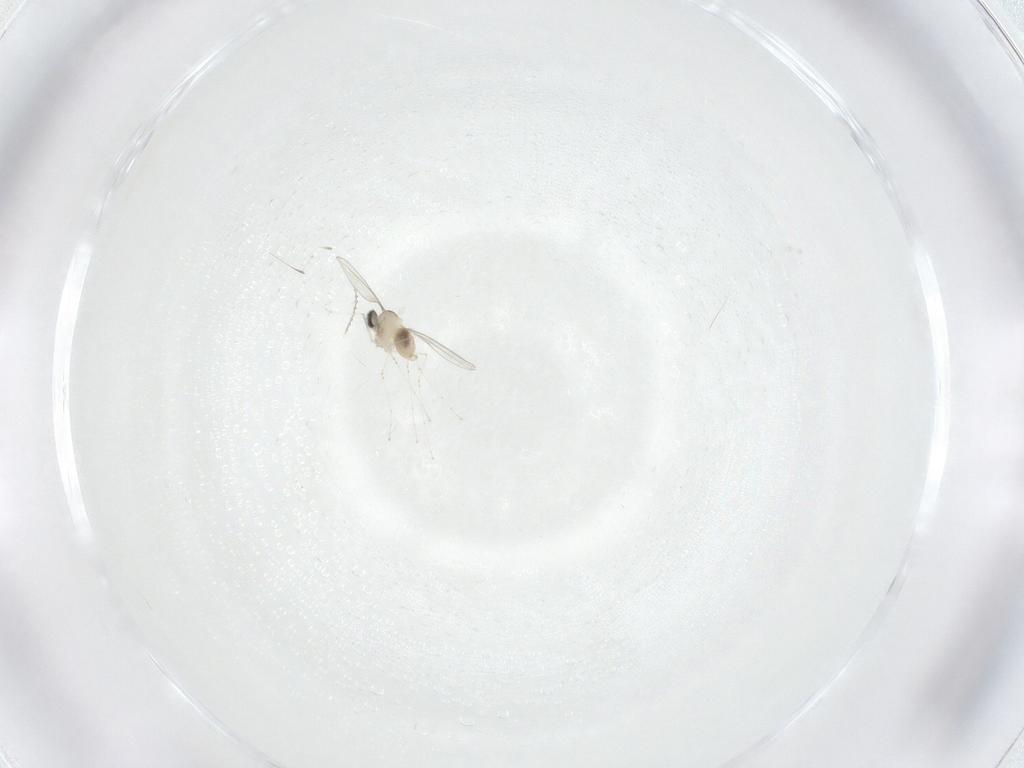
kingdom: Animalia
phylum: Arthropoda
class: Insecta
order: Diptera
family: Cecidomyiidae
